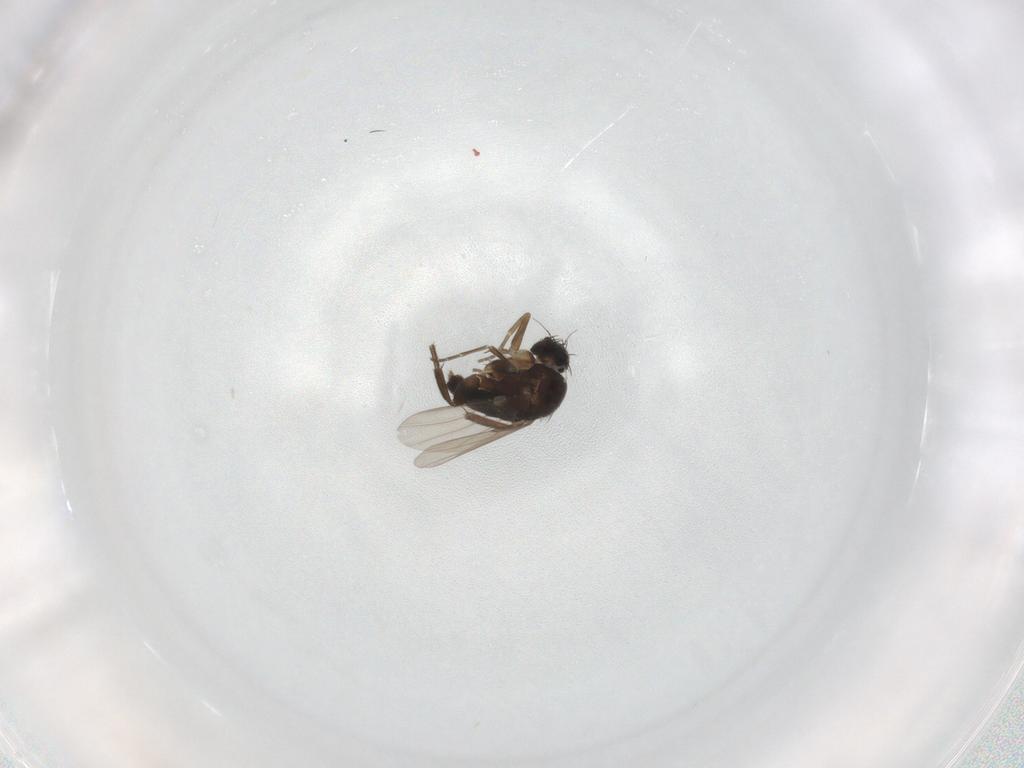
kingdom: Animalia
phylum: Arthropoda
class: Insecta
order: Diptera
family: Phoridae
